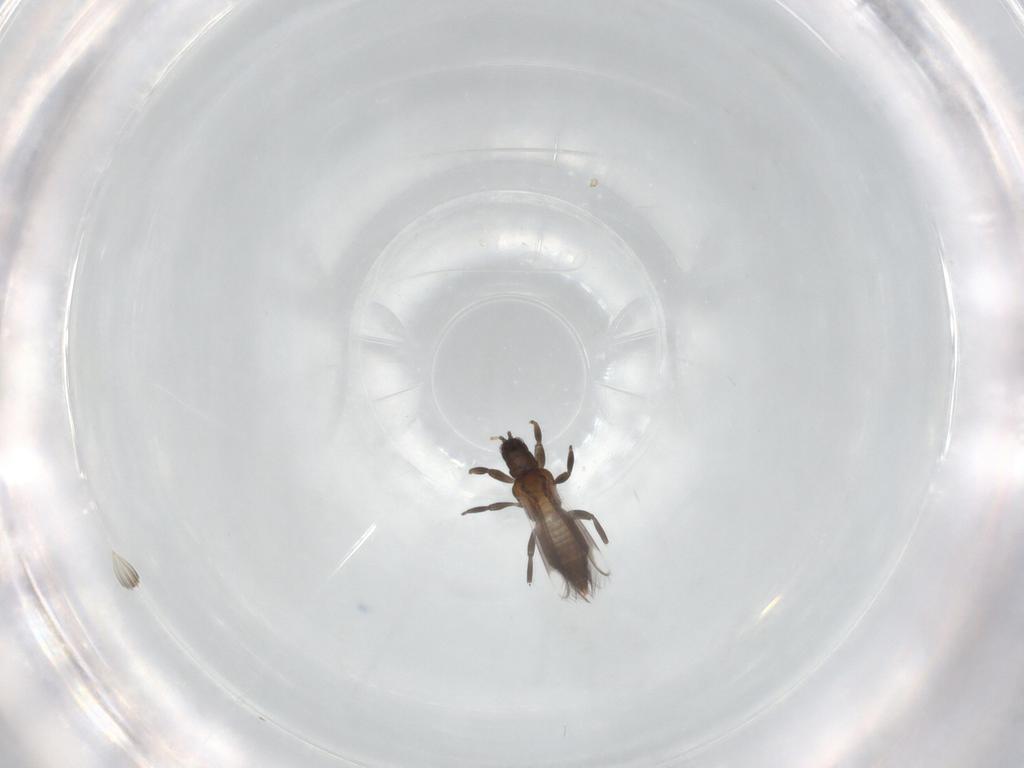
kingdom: Animalia
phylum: Arthropoda
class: Insecta
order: Thysanoptera
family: Aeolothripidae
